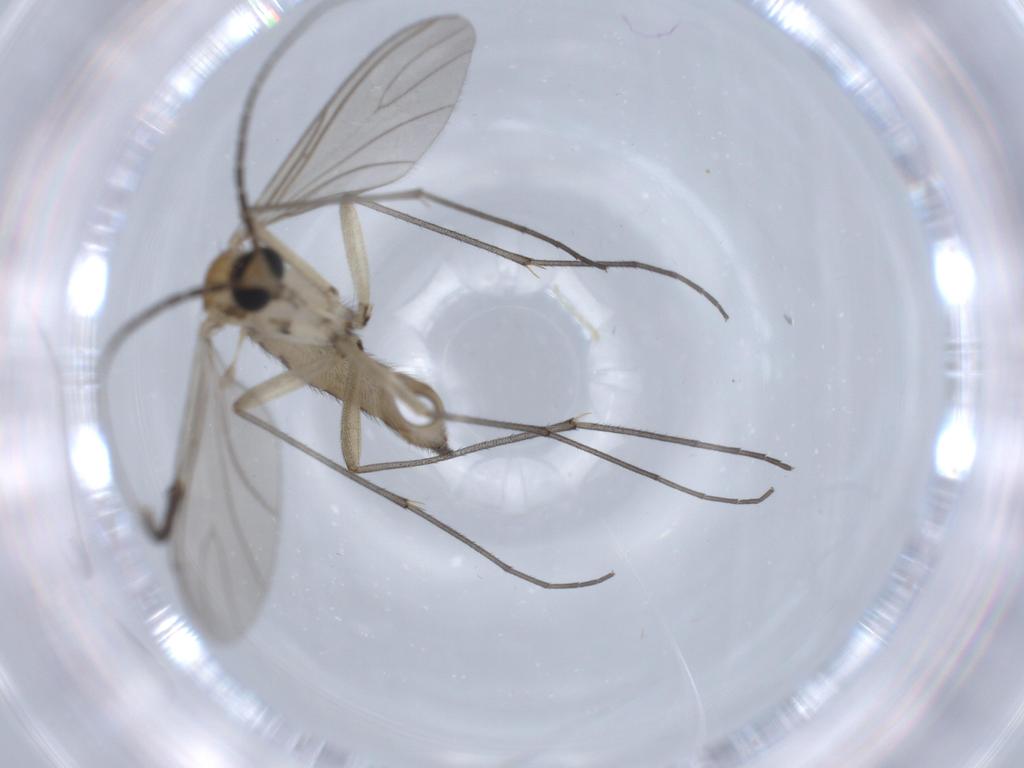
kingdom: Animalia
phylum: Arthropoda
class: Insecta
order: Diptera
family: Sciaridae
